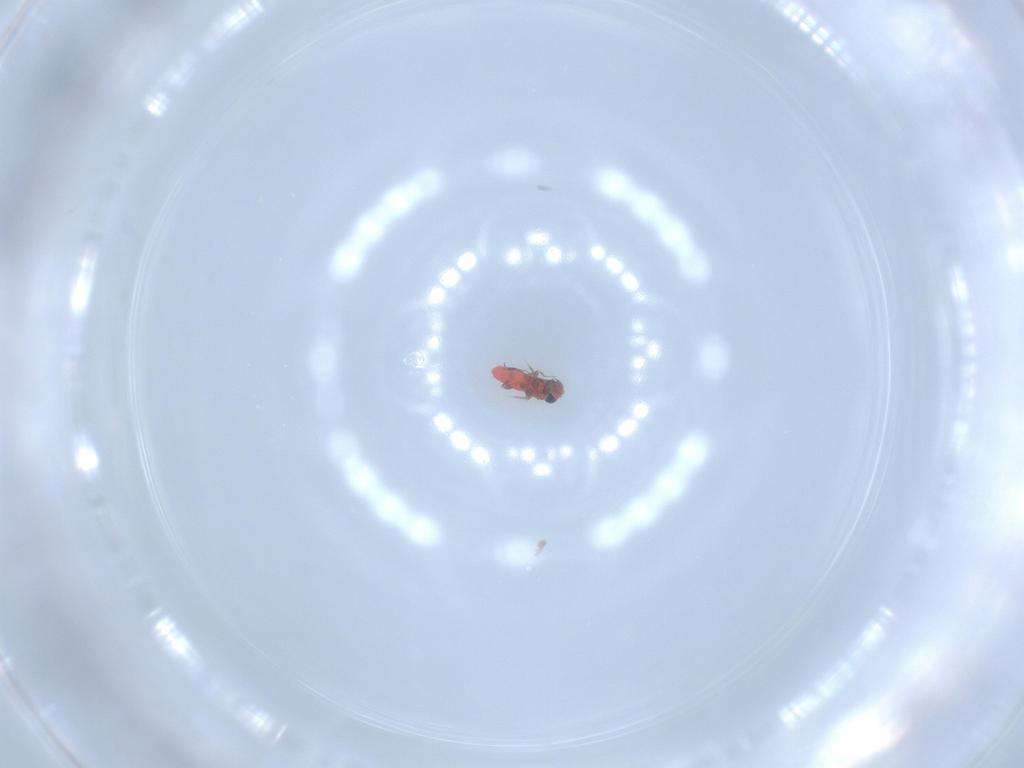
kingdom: Animalia
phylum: Arthropoda
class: Insecta
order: Hymenoptera
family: Trichogrammatidae
